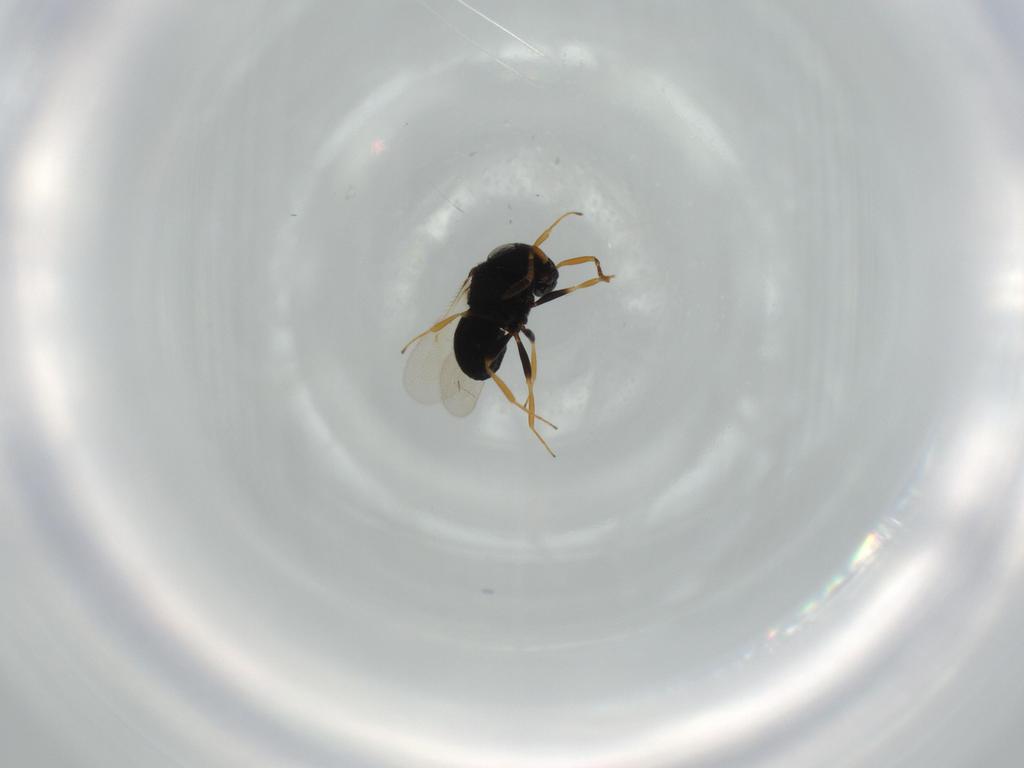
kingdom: Animalia
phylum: Arthropoda
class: Insecta
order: Hymenoptera
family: Scelionidae
